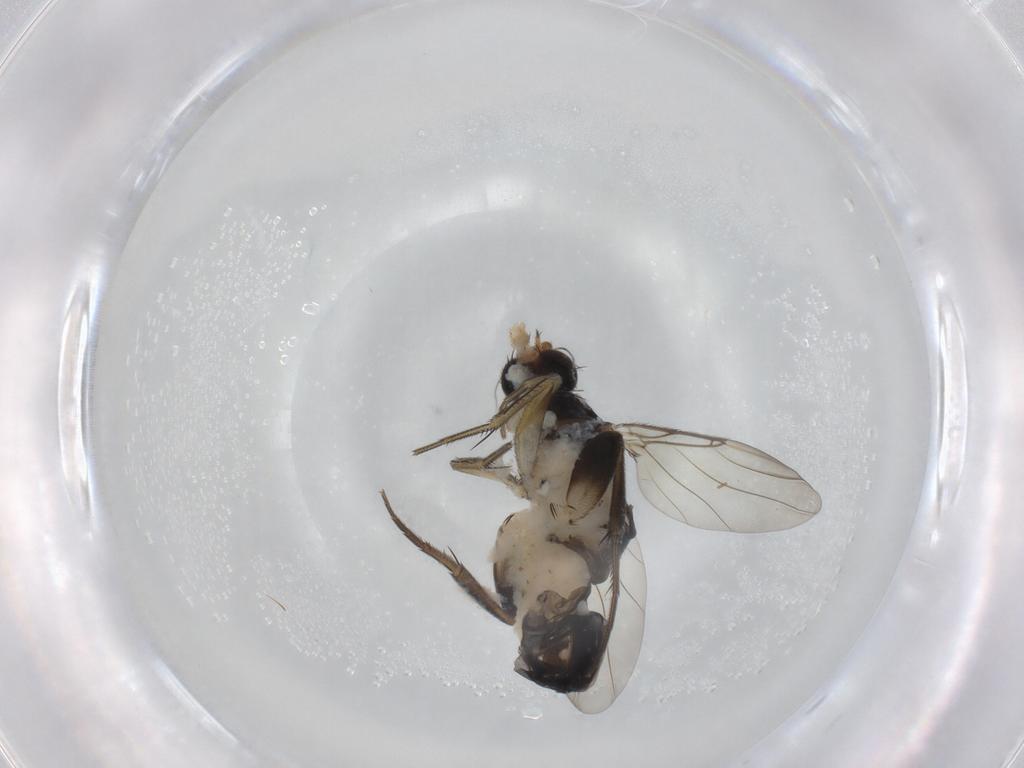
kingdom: Animalia
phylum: Arthropoda
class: Insecta
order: Diptera
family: Phoridae
